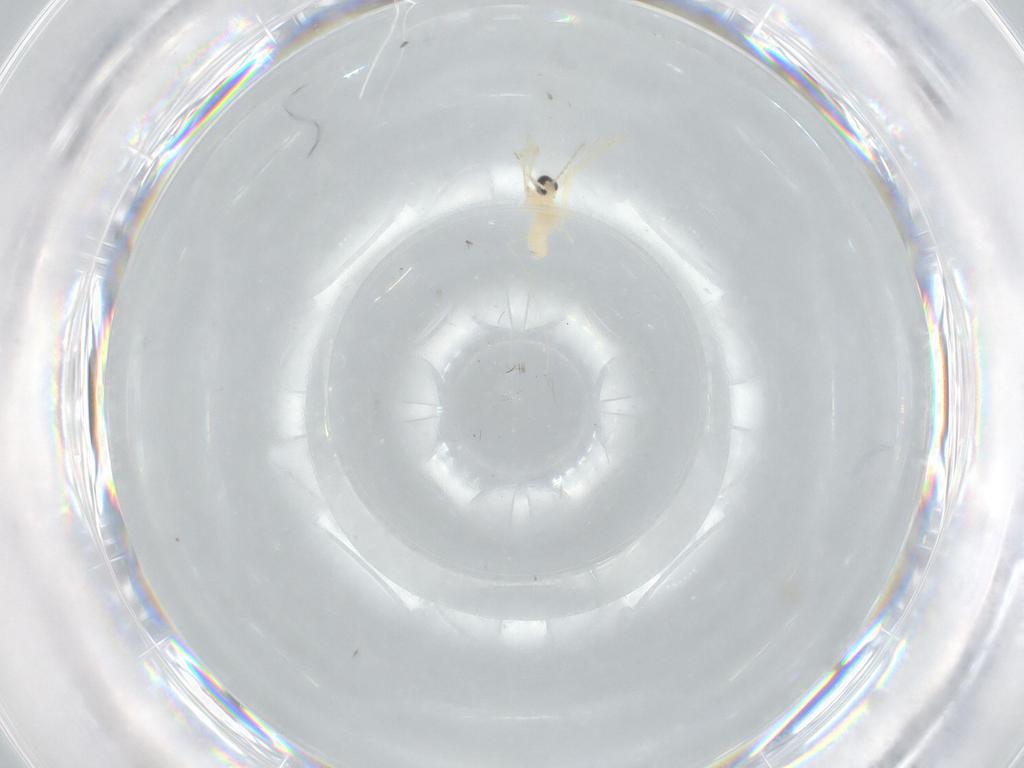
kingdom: Animalia
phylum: Arthropoda
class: Insecta
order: Diptera
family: Cecidomyiidae
